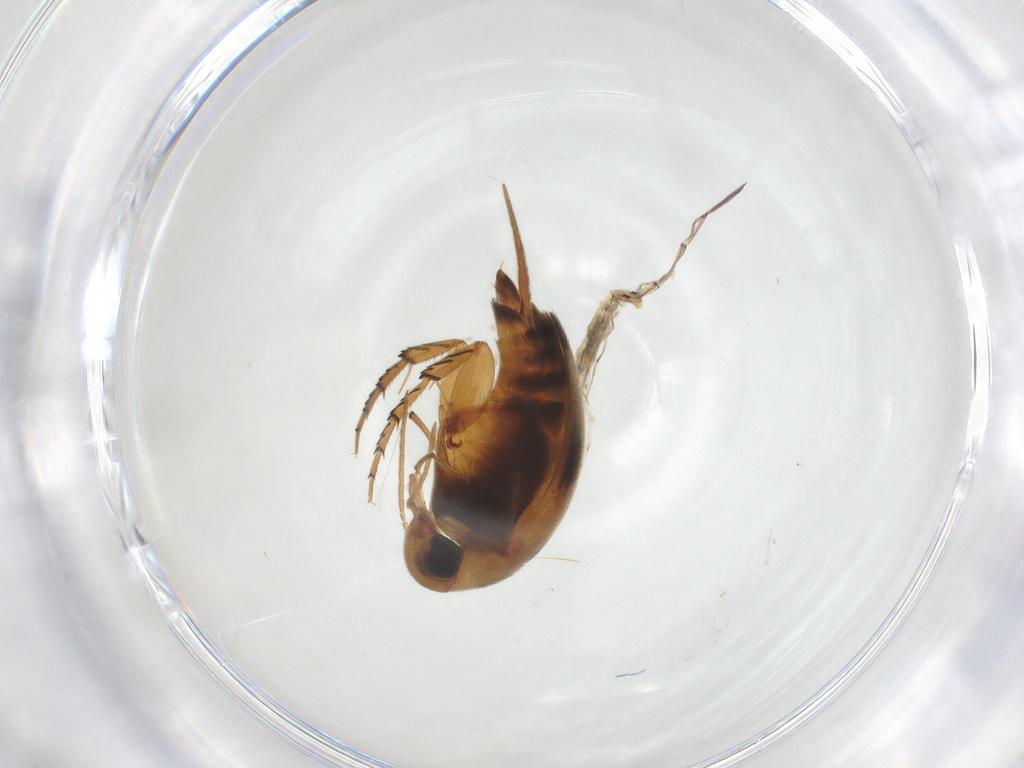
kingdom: Animalia
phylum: Arthropoda
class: Insecta
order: Coleoptera
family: Mordellidae
